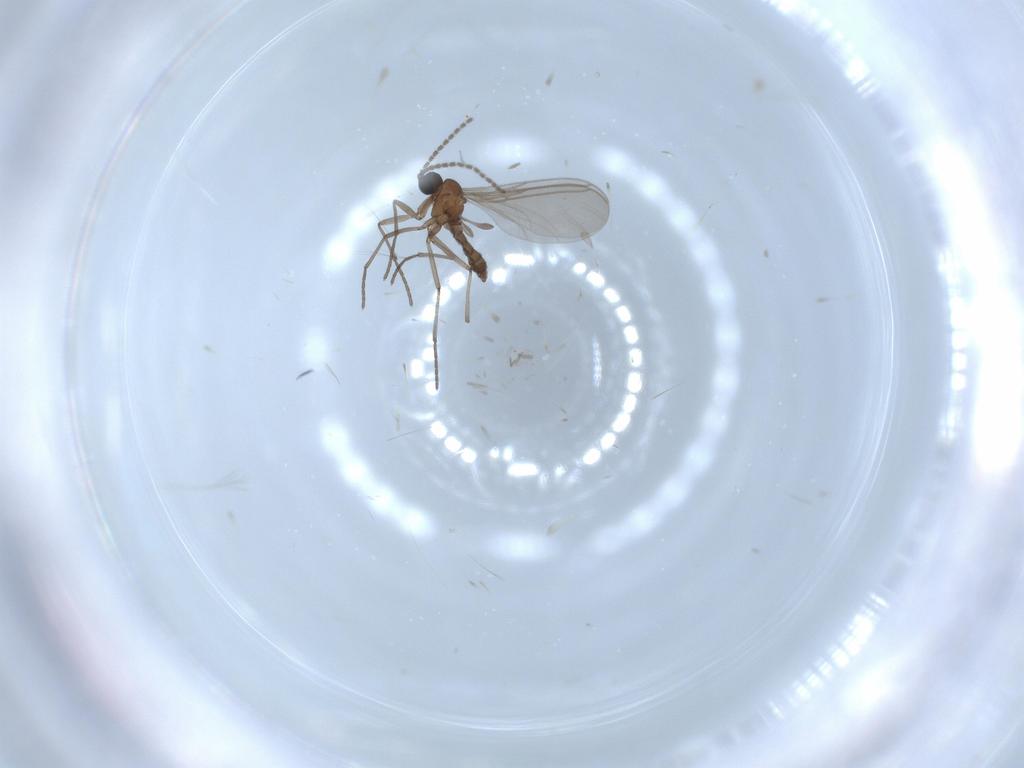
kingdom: Animalia
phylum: Arthropoda
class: Insecta
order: Diptera
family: Sciaridae
